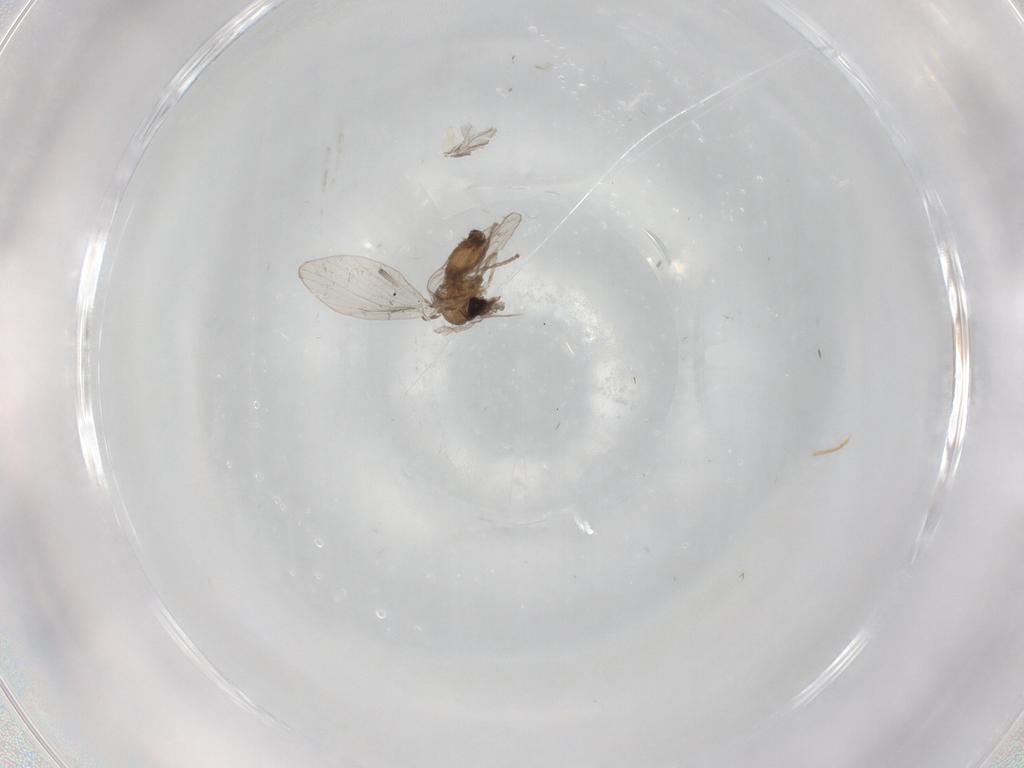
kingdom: Animalia
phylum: Arthropoda
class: Insecta
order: Diptera
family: Psychodidae
